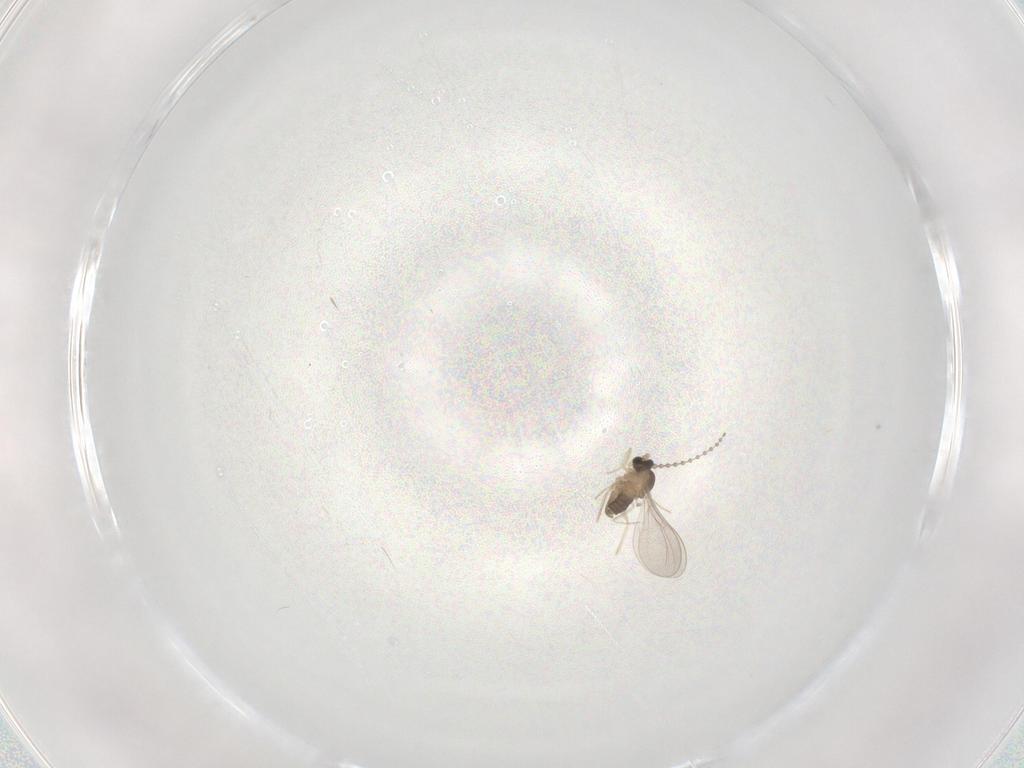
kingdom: Animalia
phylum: Arthropoda
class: Insecta
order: Diptera
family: Cecidomyiidae
